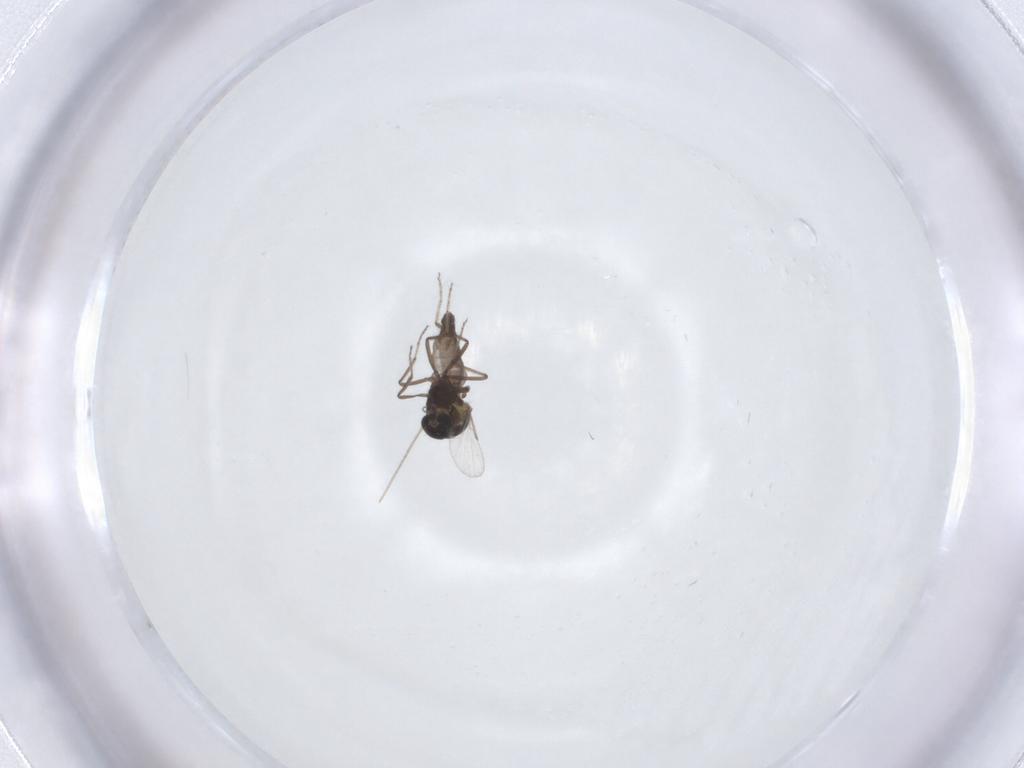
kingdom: Animalia
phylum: Arthropoda
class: Insecta
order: Diptera
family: Ceratopogonidae
